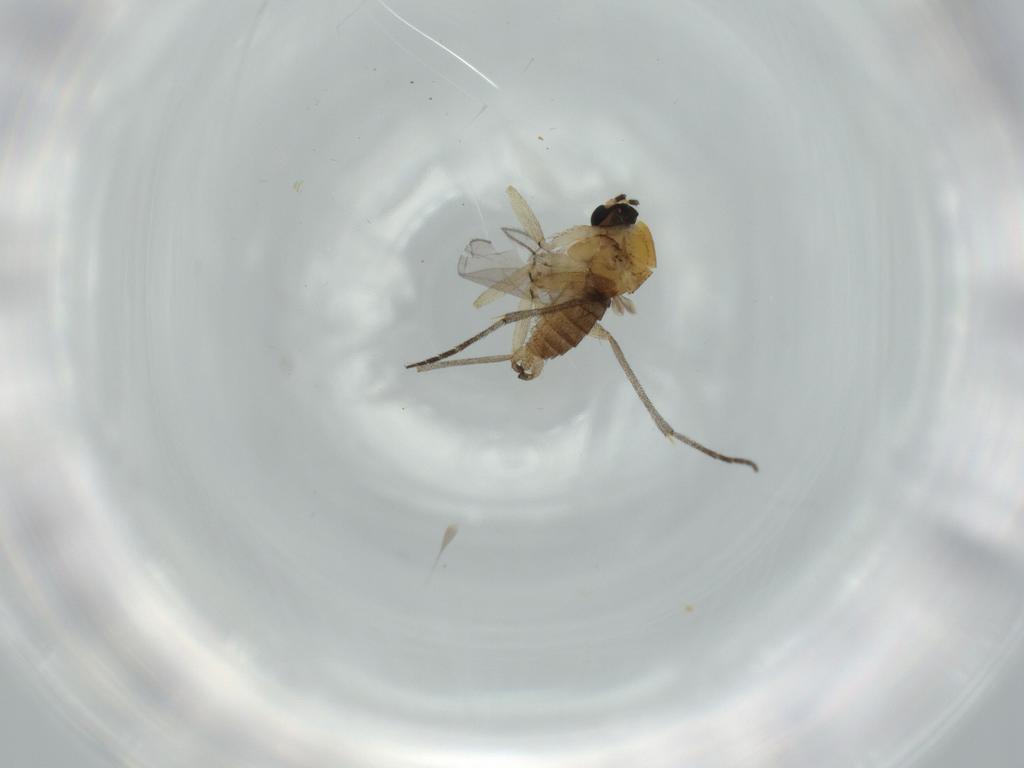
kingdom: Animalia
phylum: Arthropoda
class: Insecta
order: Diptera
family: Sciaridae
